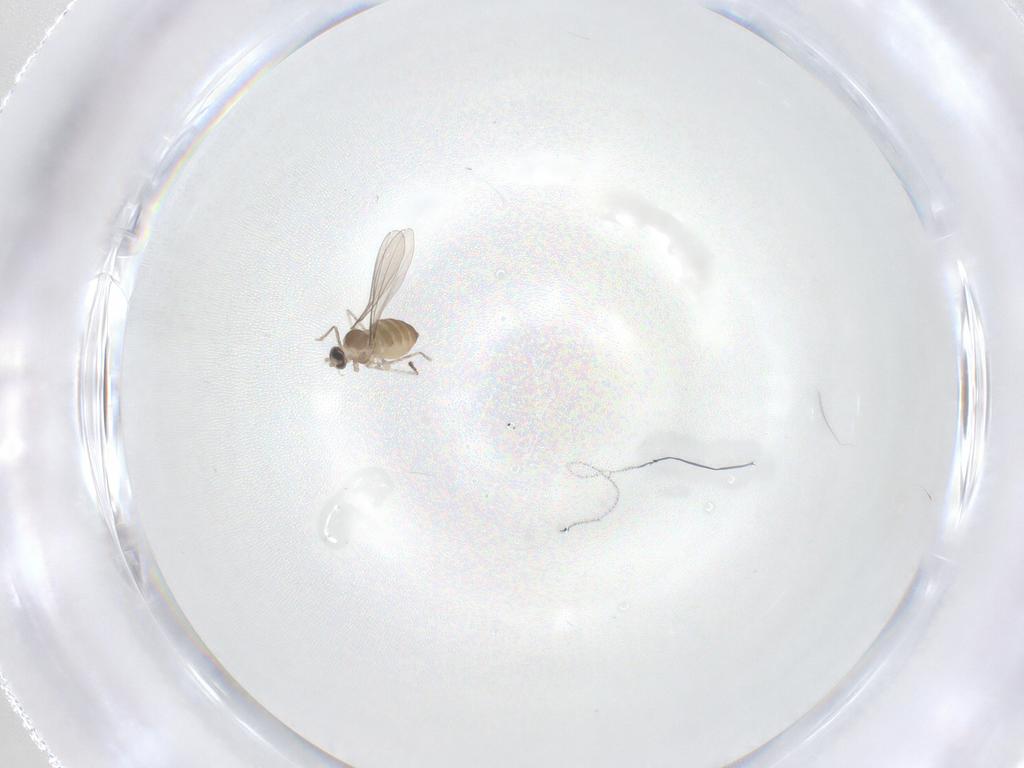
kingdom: Animalia
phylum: Arthropoda
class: Insecta
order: Diptera
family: Cecidomyiidae
